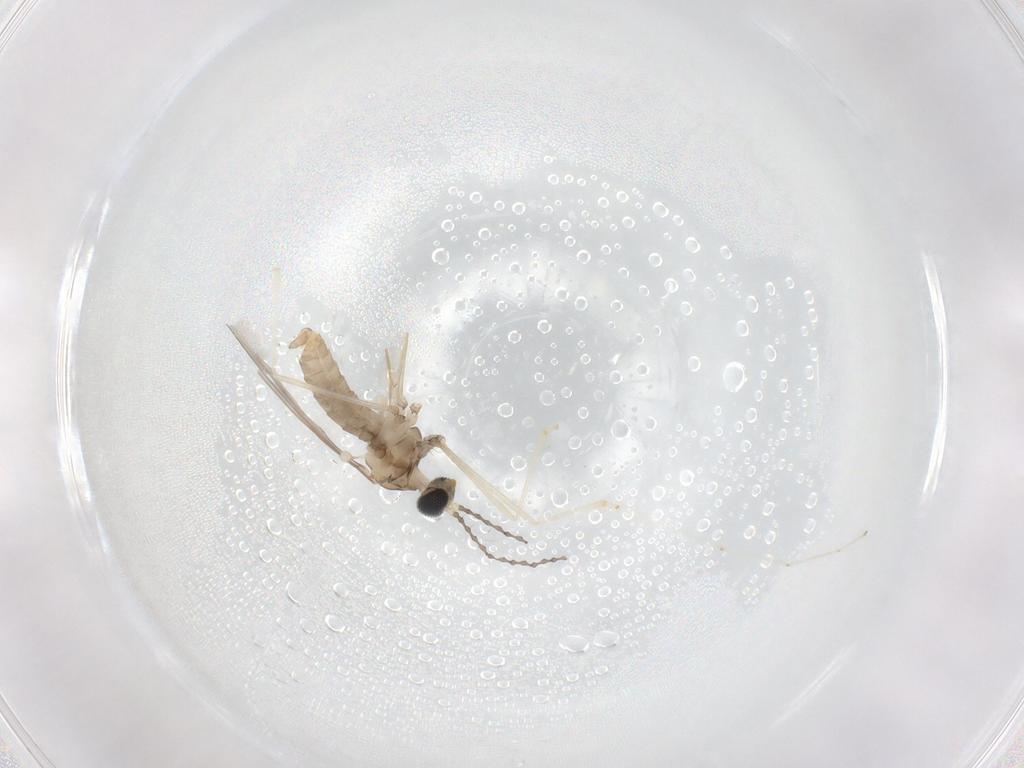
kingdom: Animalia
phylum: Arthropoda
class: Insecta
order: Diptera
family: Cecidomyiidae
